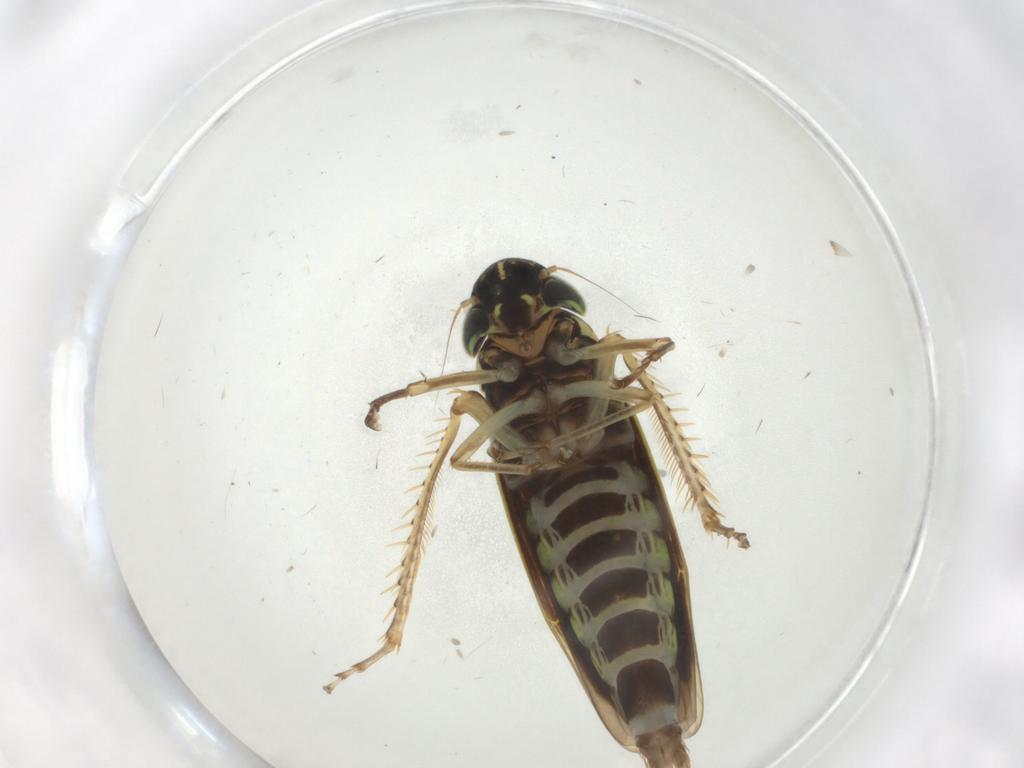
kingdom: Animalia
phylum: Arthropoda
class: Insecta
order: Hemiptera
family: Cicadellidae
